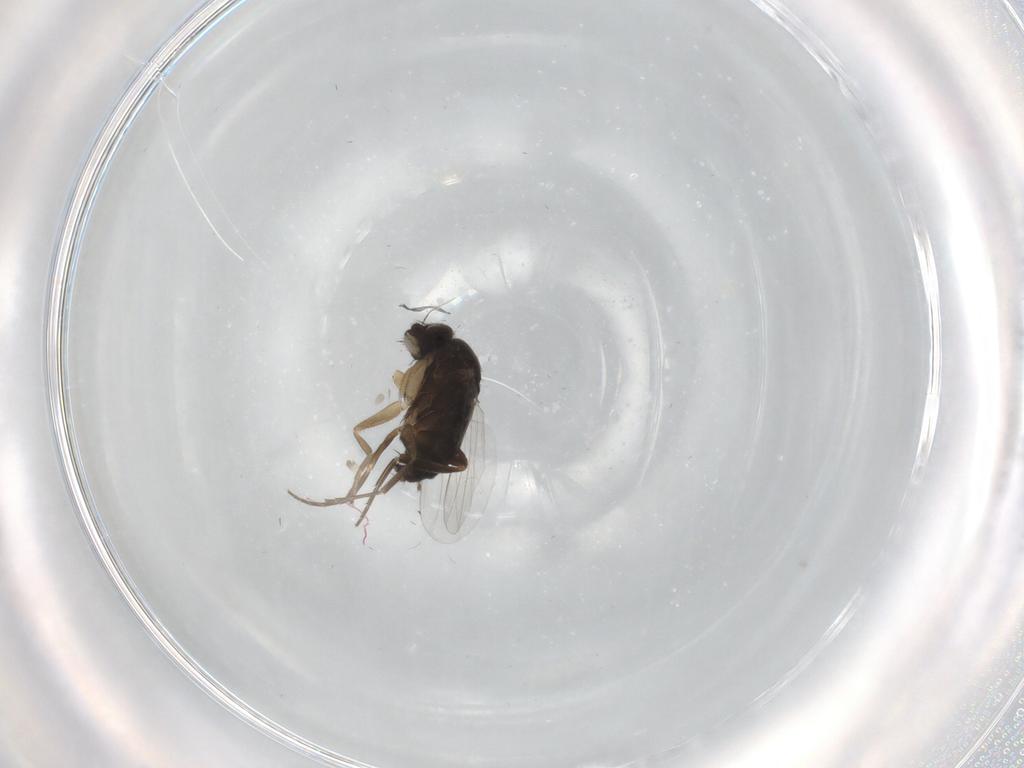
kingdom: Animalia
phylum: Arthropoda
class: Insecta
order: Diptera
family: Phoridae
